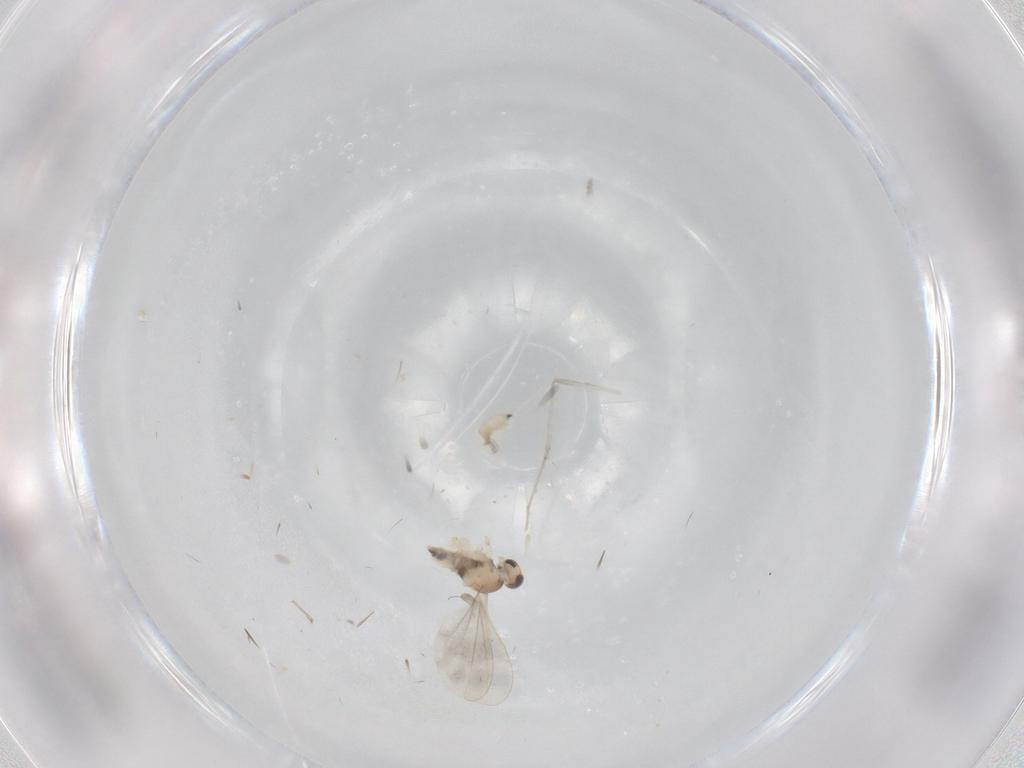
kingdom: Animalia
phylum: Arthropoda
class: Insecta
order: Diptera
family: Cecidomyiidae
